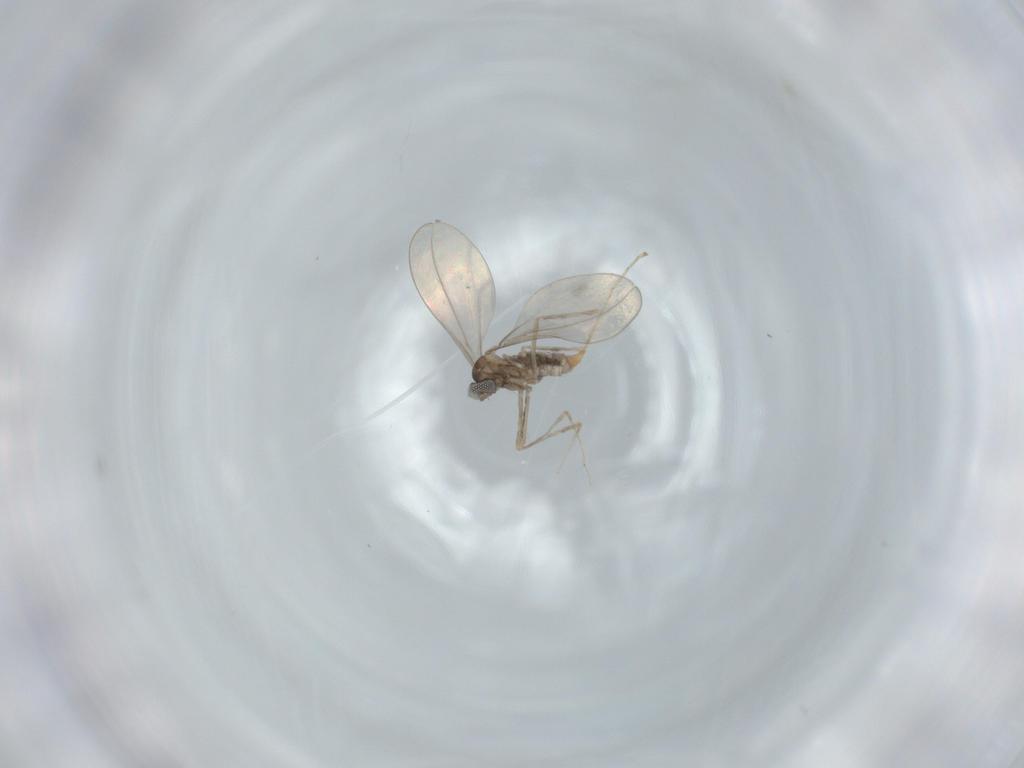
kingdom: Animalia
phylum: Arthropoda
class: Insecta
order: Diptera
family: Cecidomyiidae
